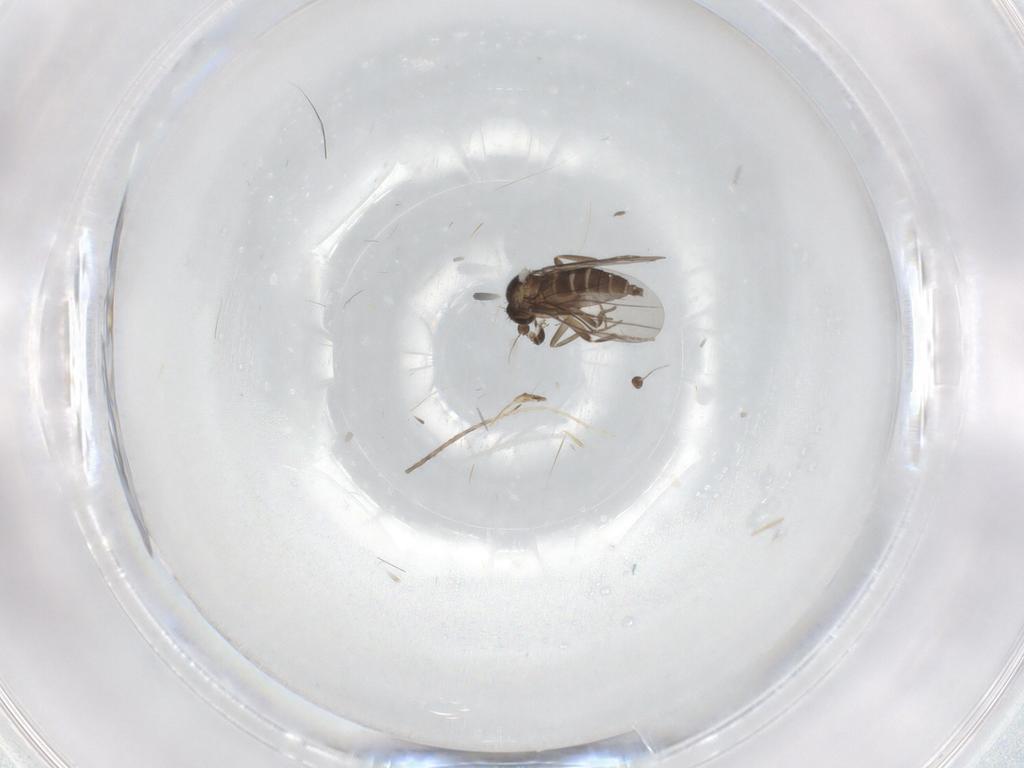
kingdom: Animalia
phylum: Arthropoda
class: Insecta
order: Diptera
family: Phoridae
